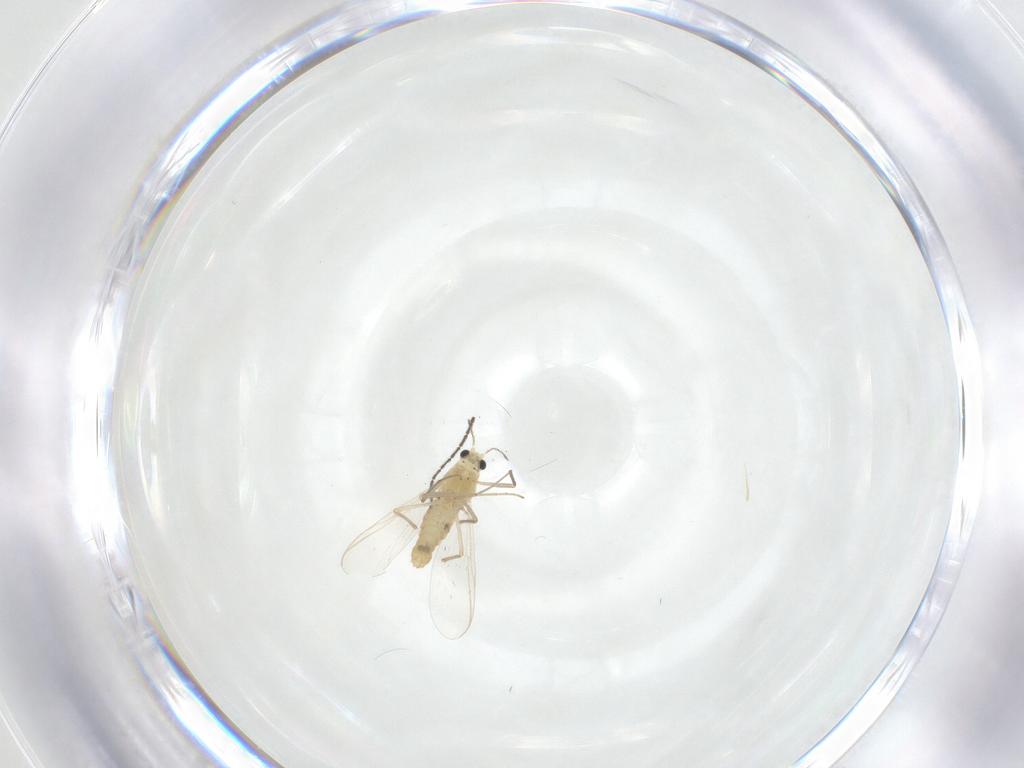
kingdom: Animalia
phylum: Arthropoda
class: Insecta
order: Diptera
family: Chironomidae
